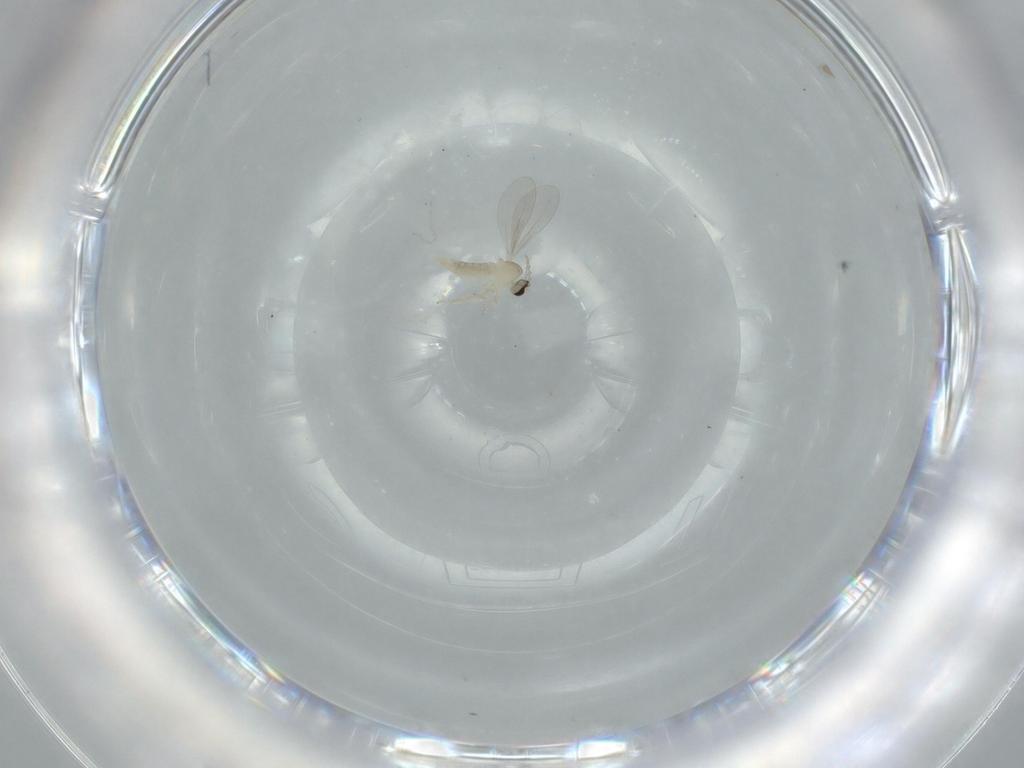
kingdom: Animalia
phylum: Arthropoda
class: Insecta
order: Diptera
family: Cecidomyiidae
